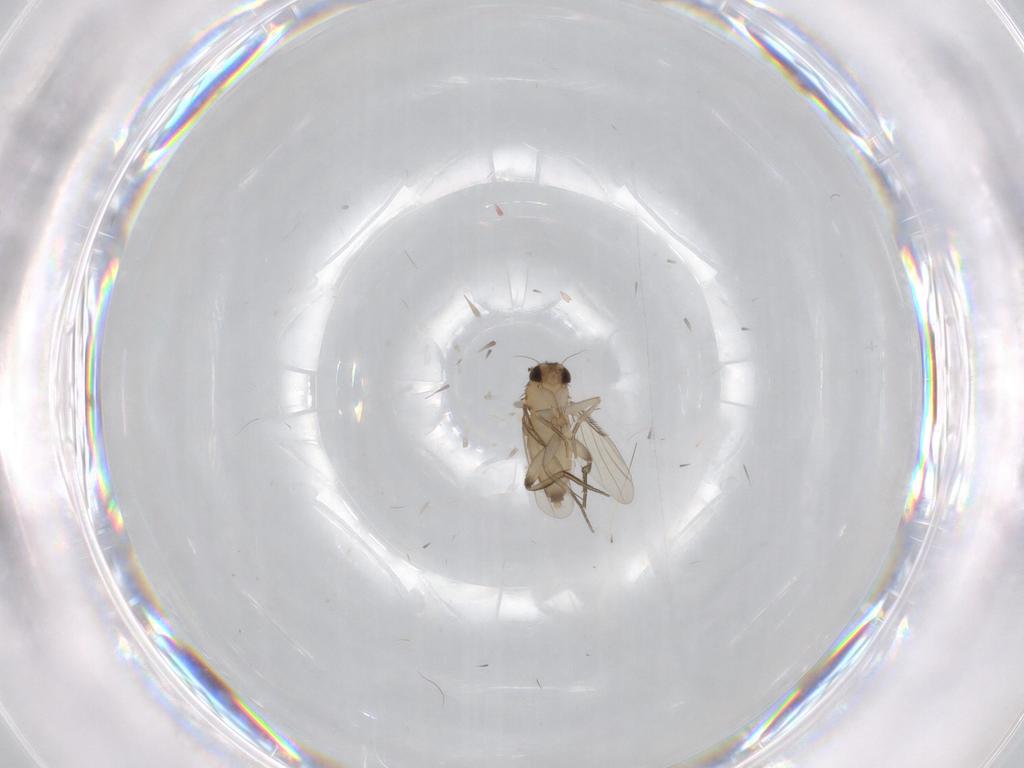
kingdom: Animalia
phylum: Arthropoda
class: Insecta
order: Diptera
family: Phoridae
